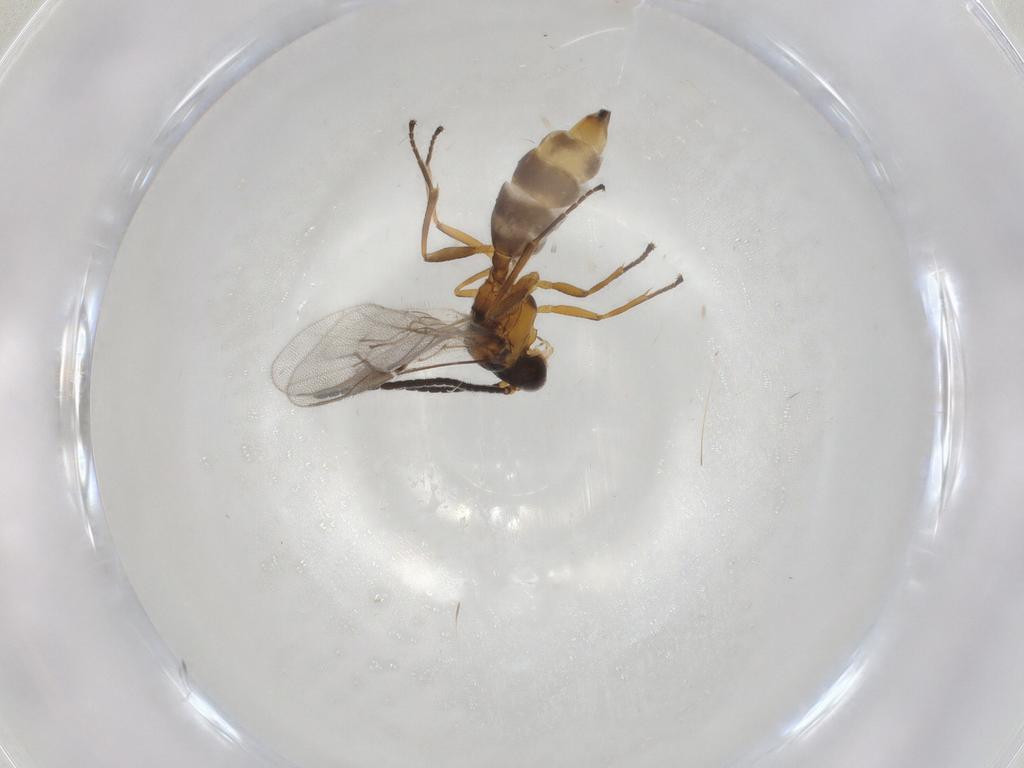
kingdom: Animalia
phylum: Arthropoda
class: Insecta
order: Hymenoptera
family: Braconidae
